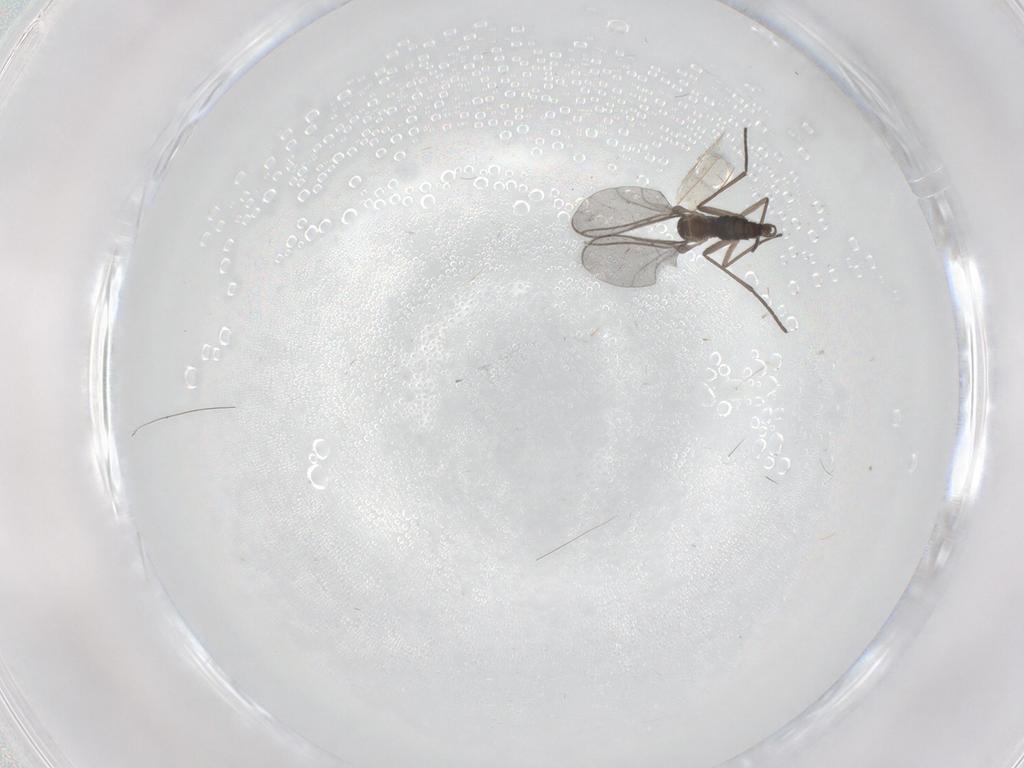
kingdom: Animalia
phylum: Arthropoda
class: Insecta
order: Diptera
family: Cecidomyiidae
